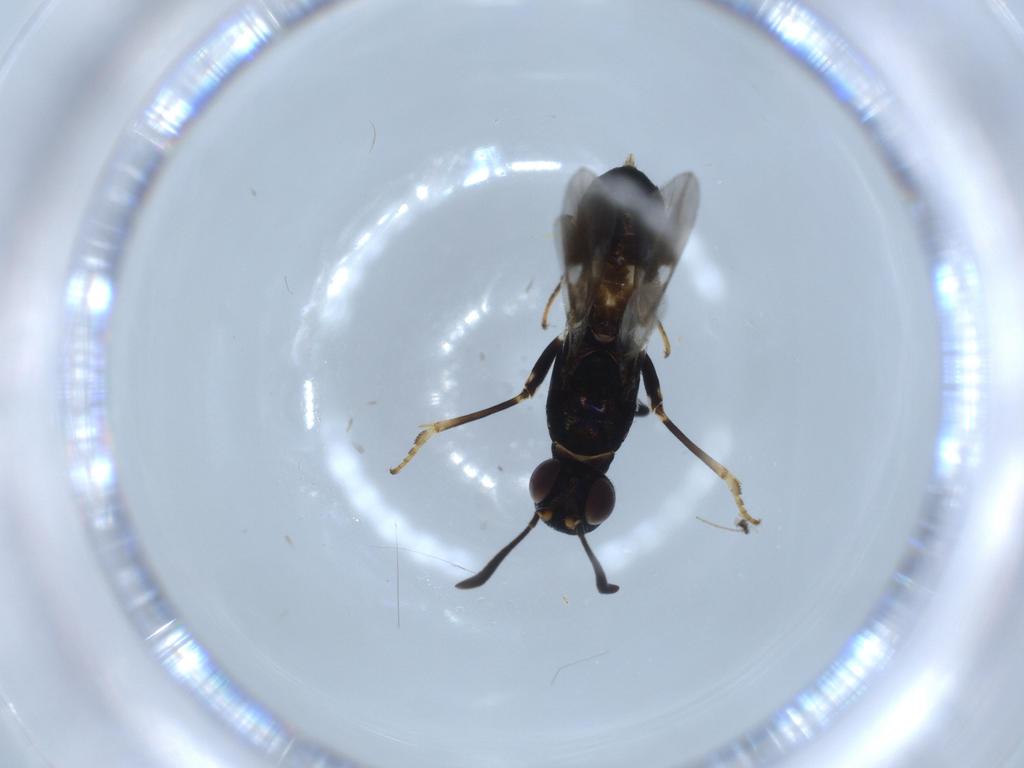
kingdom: Animalia
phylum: Arthropoda
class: Insecta
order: Hymenoptera
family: Eupelmidae
